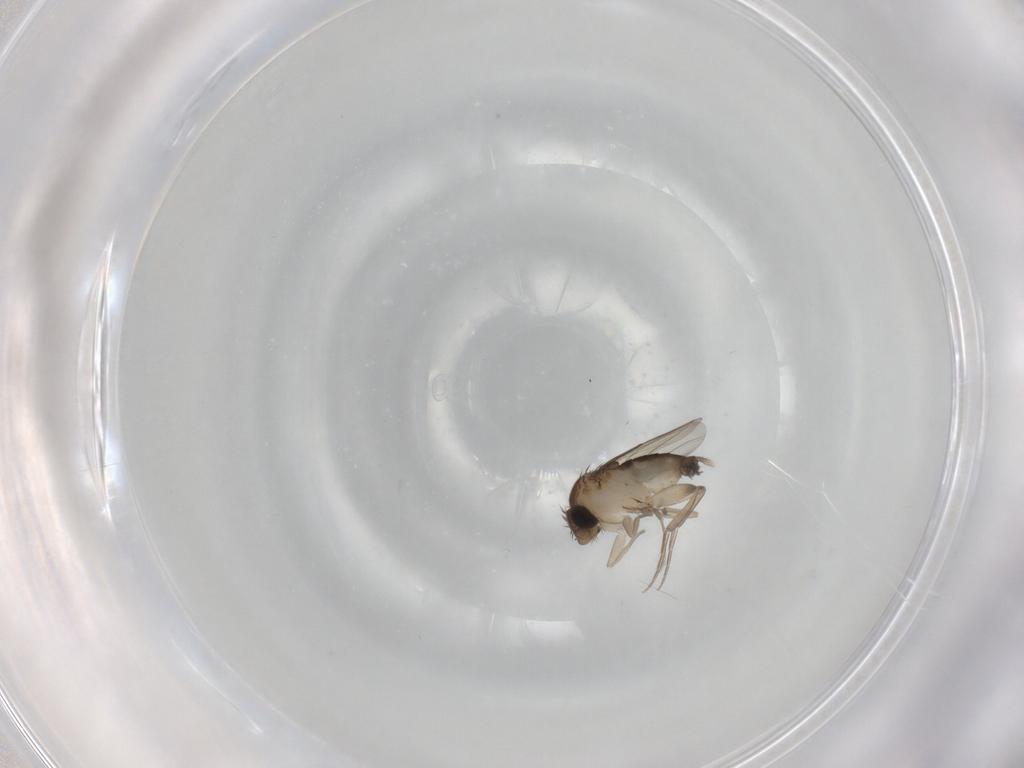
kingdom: Animalia
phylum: Arthropoda
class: Insecta
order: Diptera
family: Phoridae
